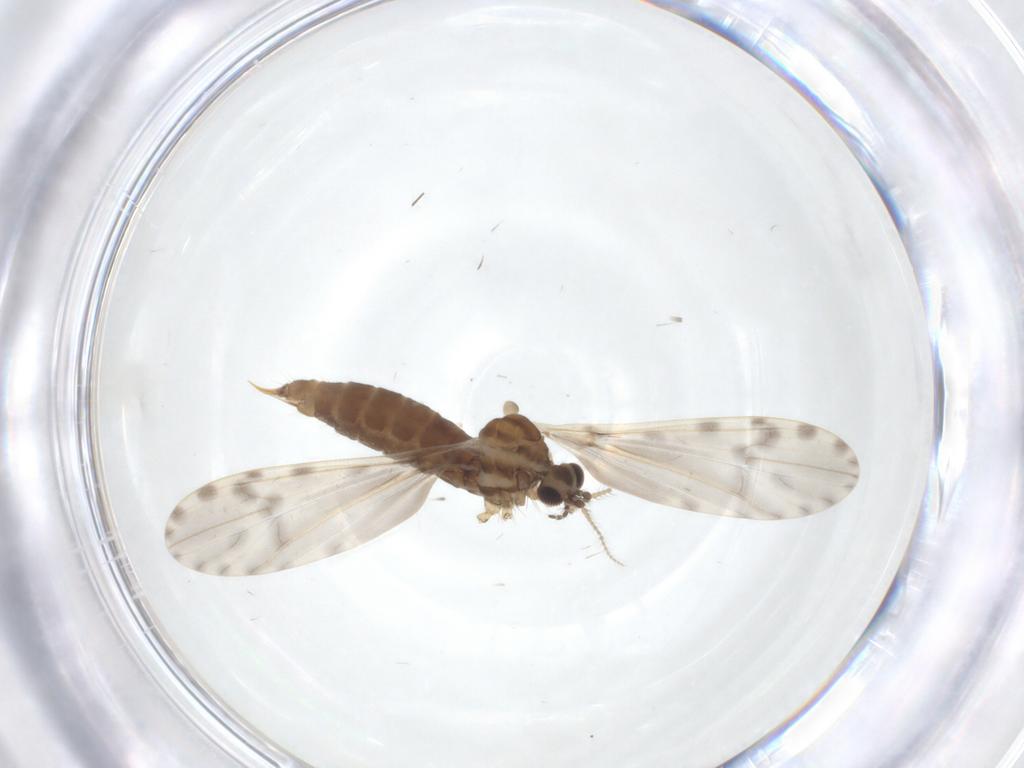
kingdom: Animalia
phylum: Arthropoda
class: Insecta
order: Diptera
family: Limoniidae
